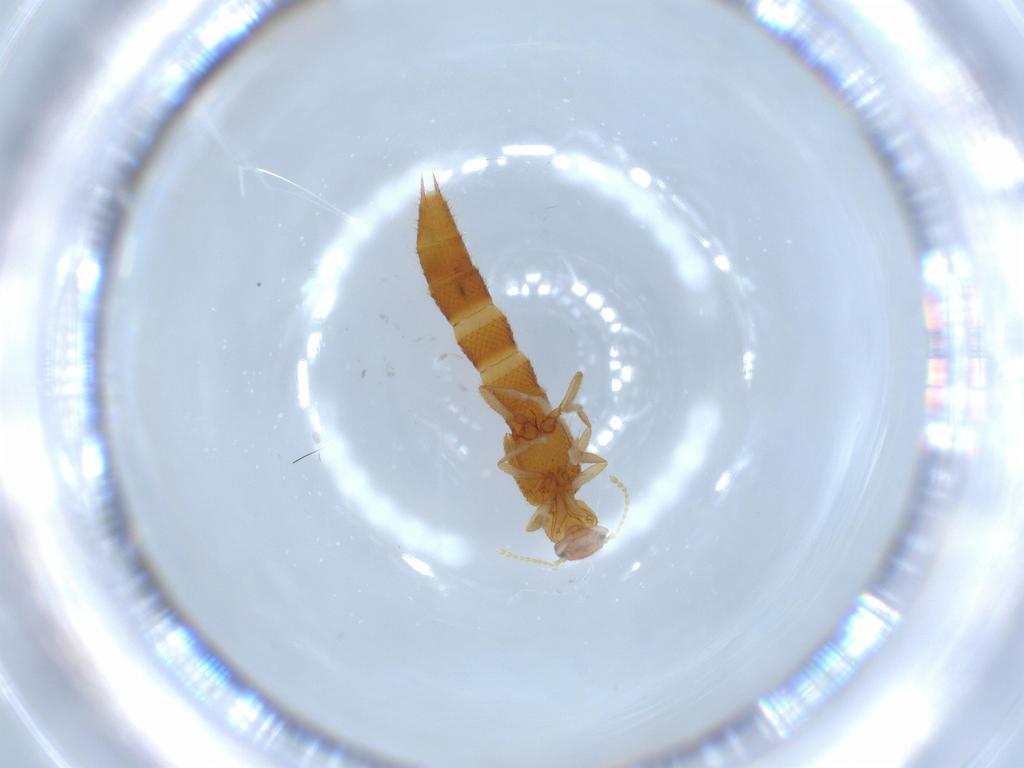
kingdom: Animalia
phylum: Arthropoda
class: Insecta
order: Coleoptera
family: Staphylinidae
